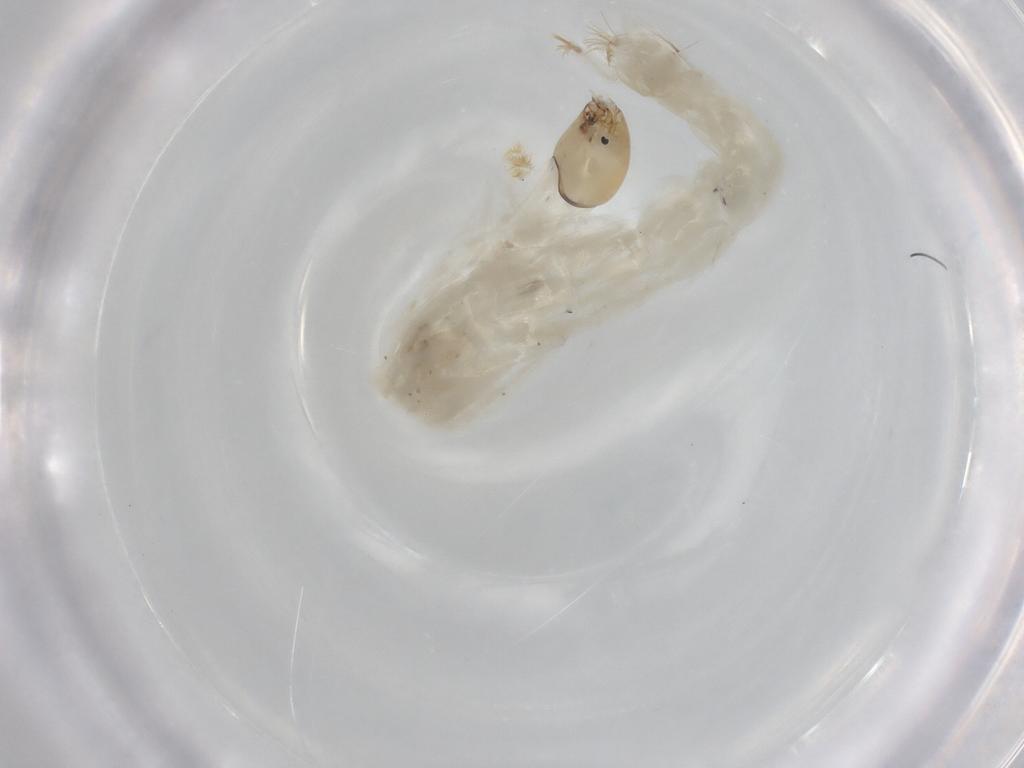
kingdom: Animalia
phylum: Arthropoda
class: Insecta
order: Diptera
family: Chironomidae
